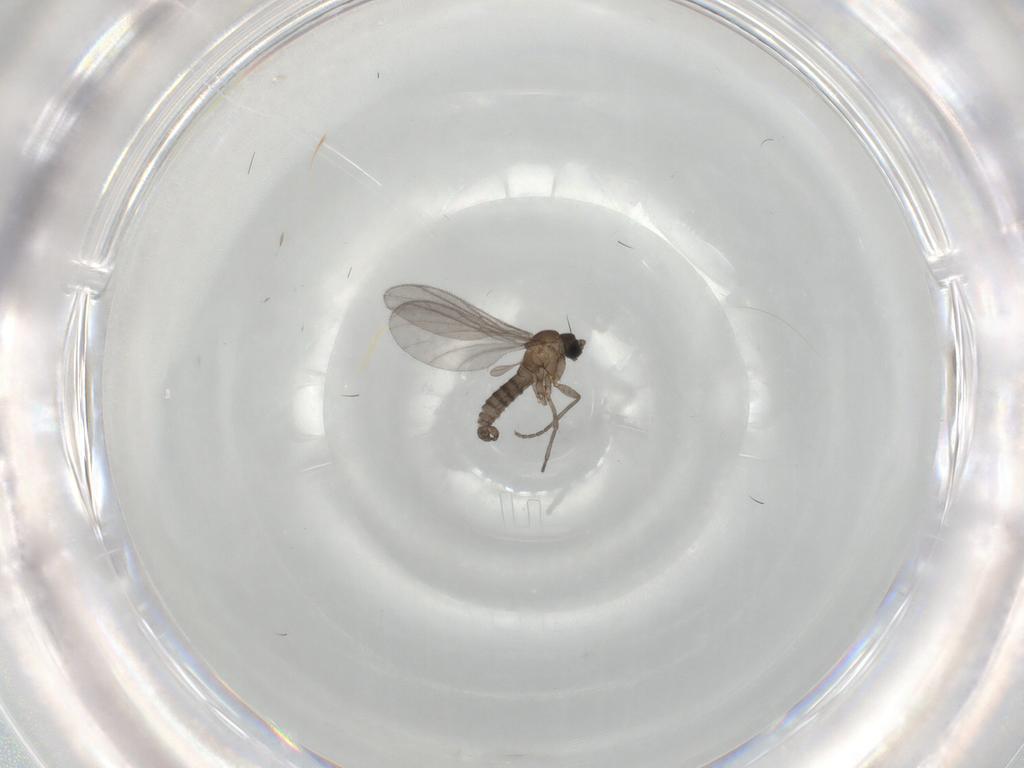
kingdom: Animalia
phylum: Arthropoda
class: Insecta
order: Diptera
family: Sciaridae
